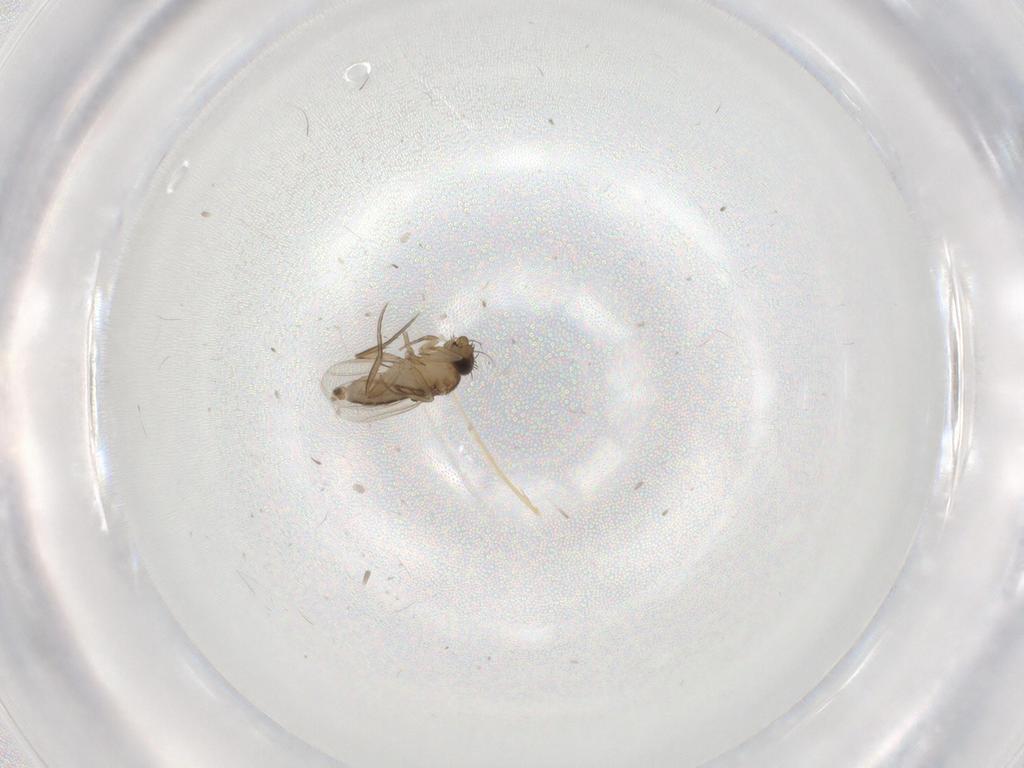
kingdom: Animalia
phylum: Arthropoda
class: Insecta
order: Diptera
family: Phoridae
